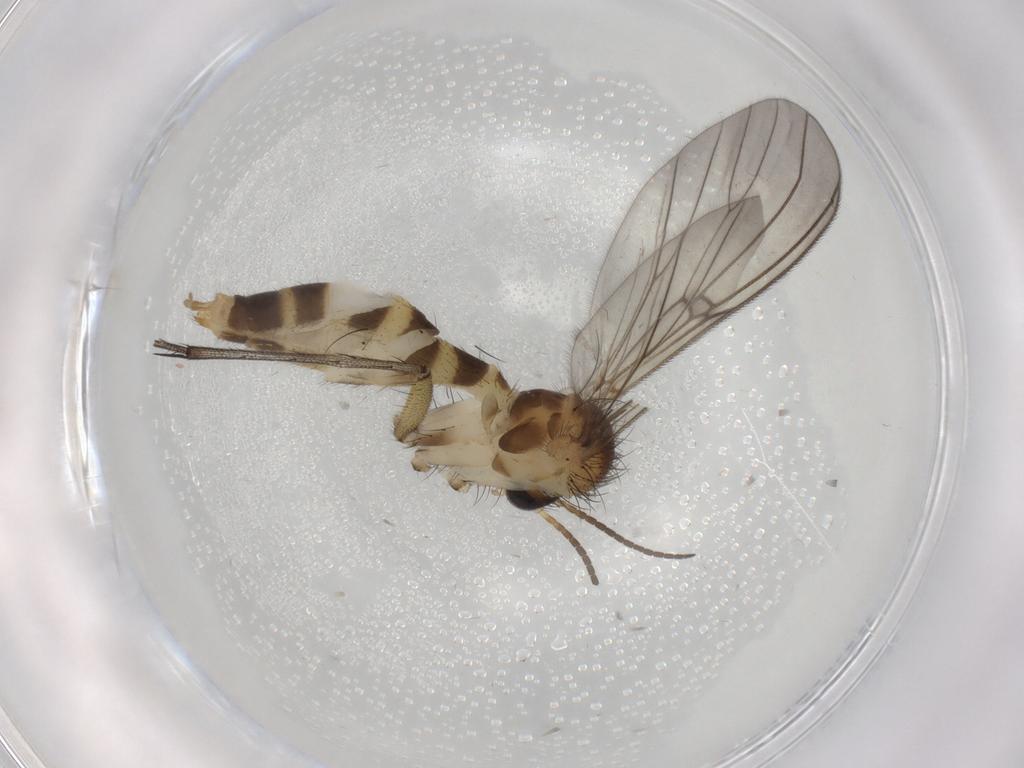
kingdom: Animalia
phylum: Arthropoda
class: Insecta
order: Diptera
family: Mycetophilidae
